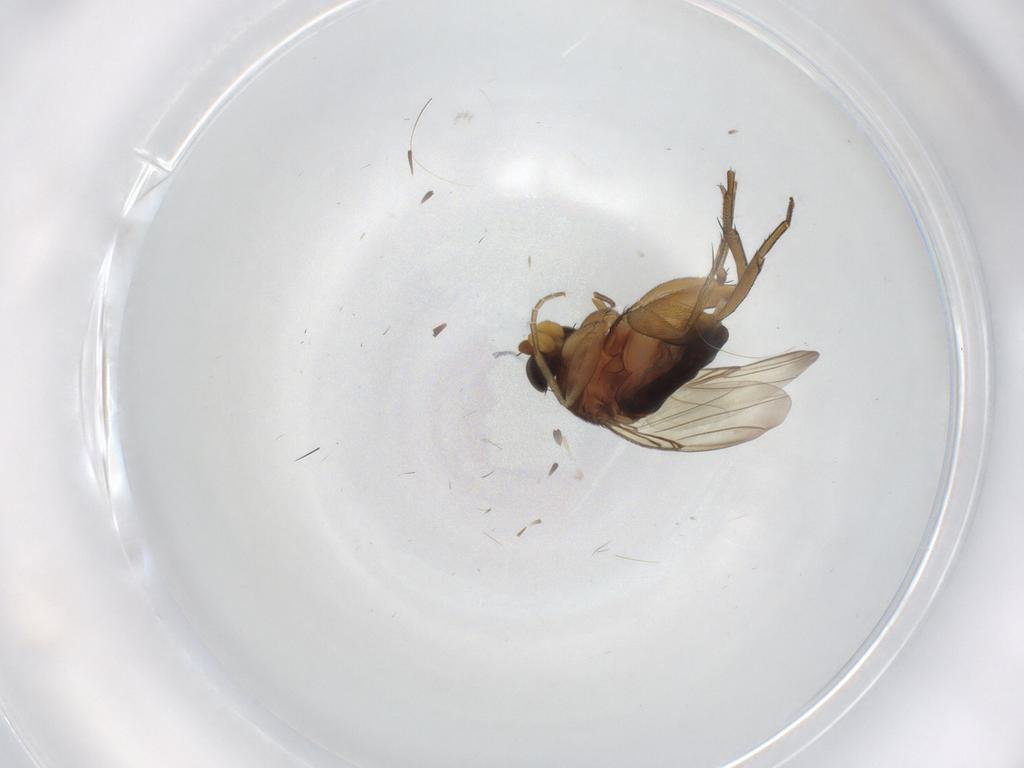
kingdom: Animalia
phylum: Arthropoda
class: Insecta
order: Diptera
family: Phoridae
